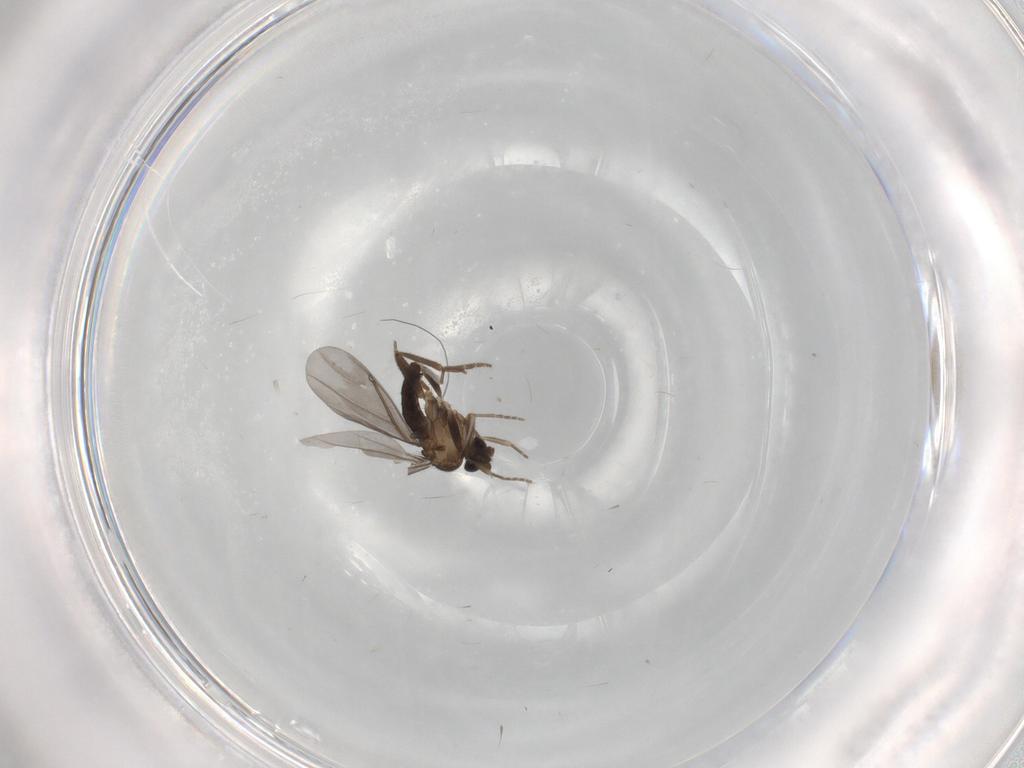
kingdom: Animalia
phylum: Arthropoda
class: Insecta
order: Diptera
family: Phoridae
